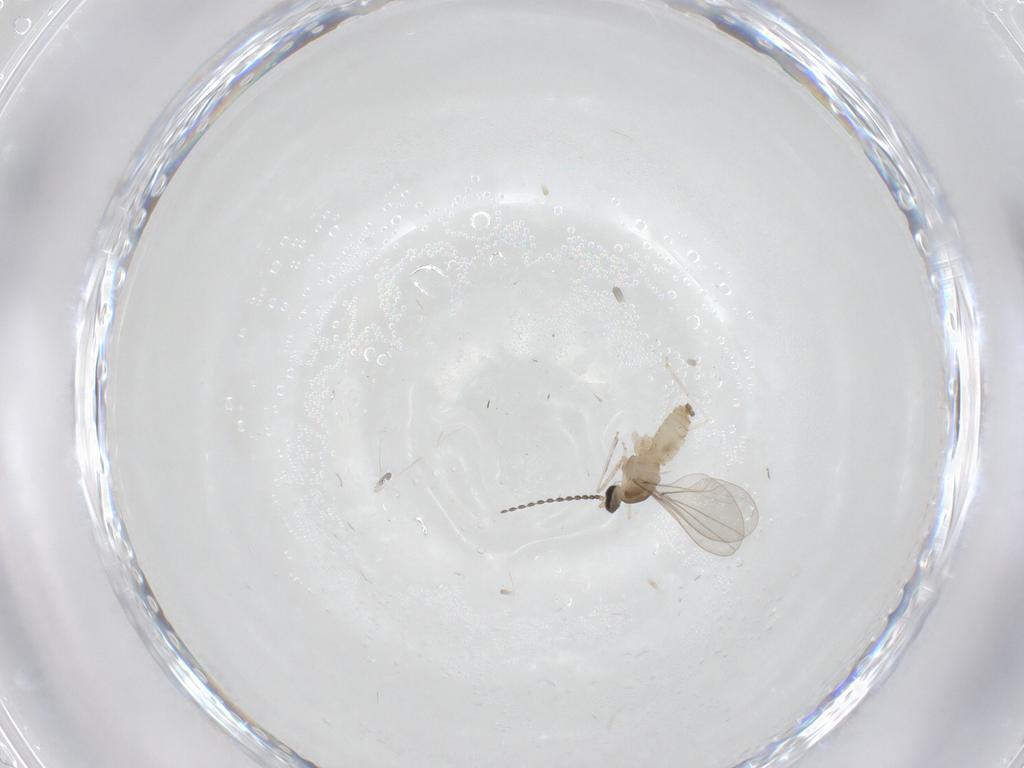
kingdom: Animalia
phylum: Arthropoda
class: Insecta
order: Diptera
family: Cecidomyiidae
